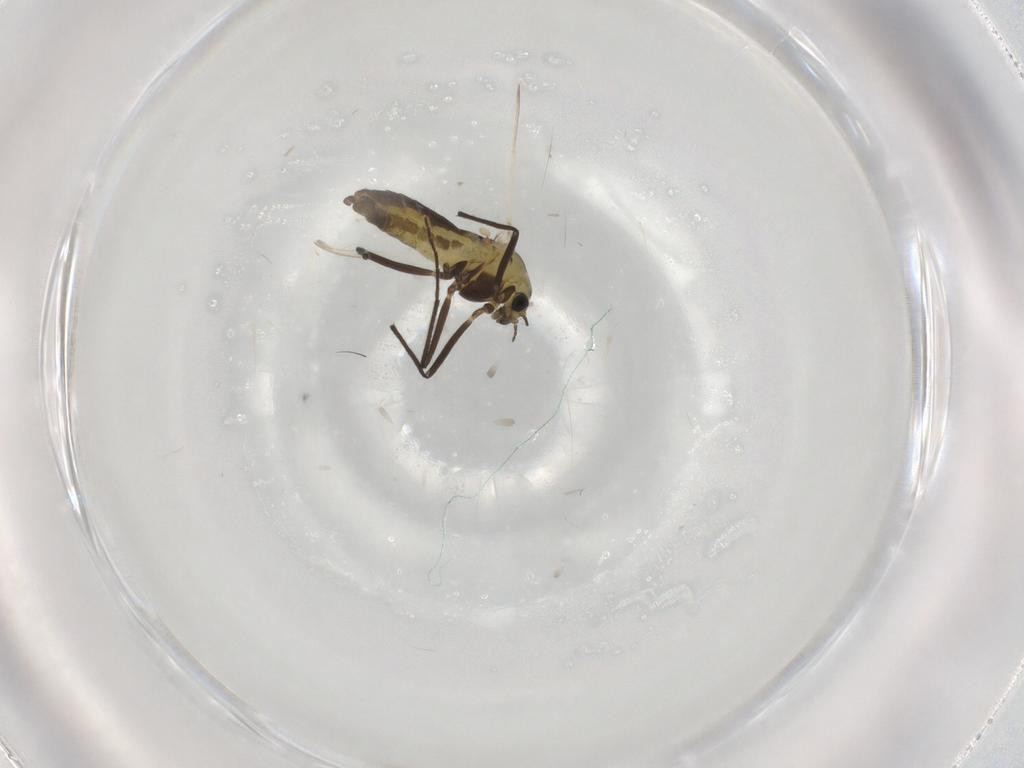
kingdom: Animalia
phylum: Arthropoda
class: Insecta
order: Diptera
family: Chironomidae
